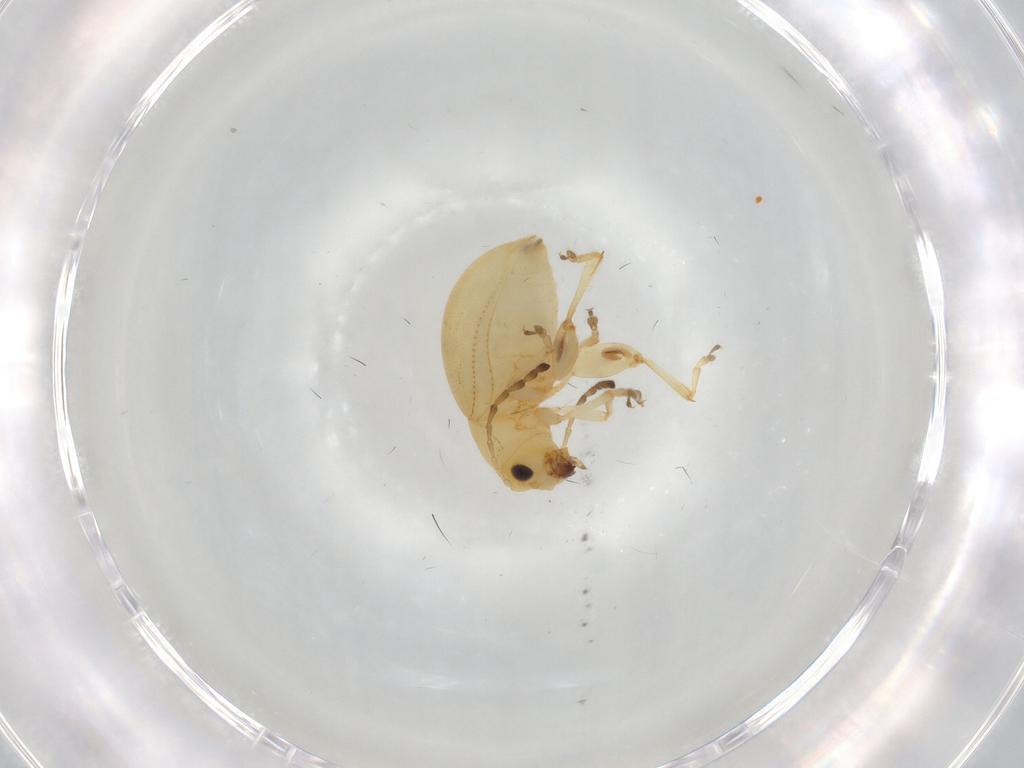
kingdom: Animalia
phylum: Arthropoda
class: Insecta
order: Coleoptera
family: Chrysomelidae
